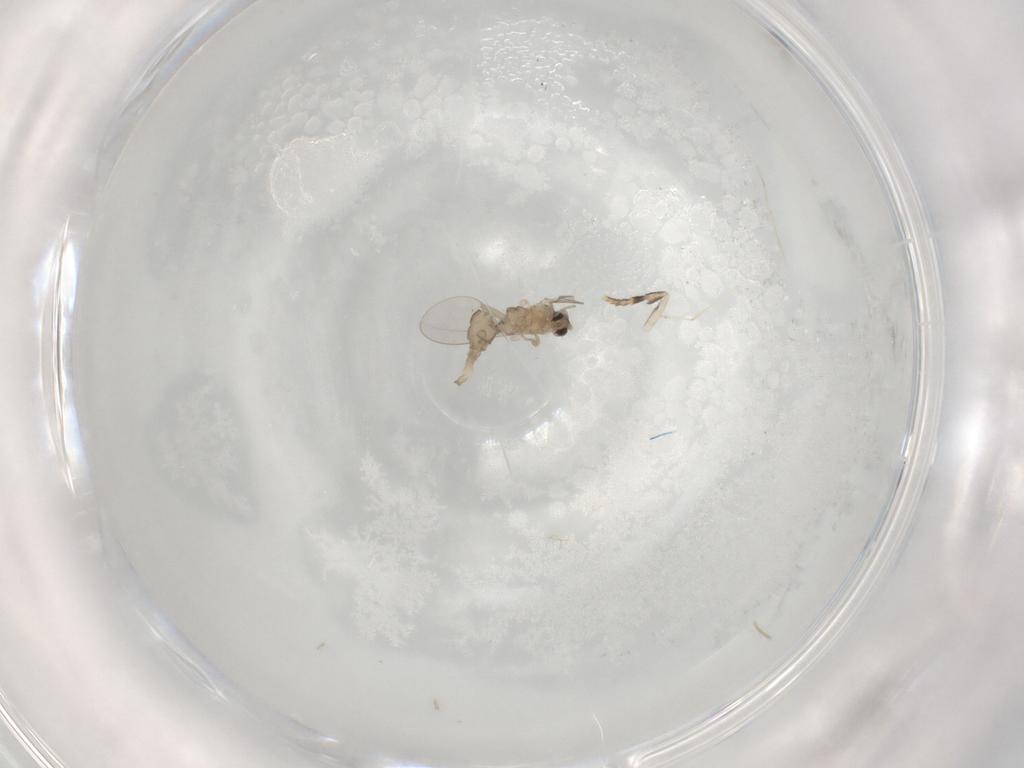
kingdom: Animalia
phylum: Arthropoda
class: Insecta
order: Diptera
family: Cecidomyiidae
